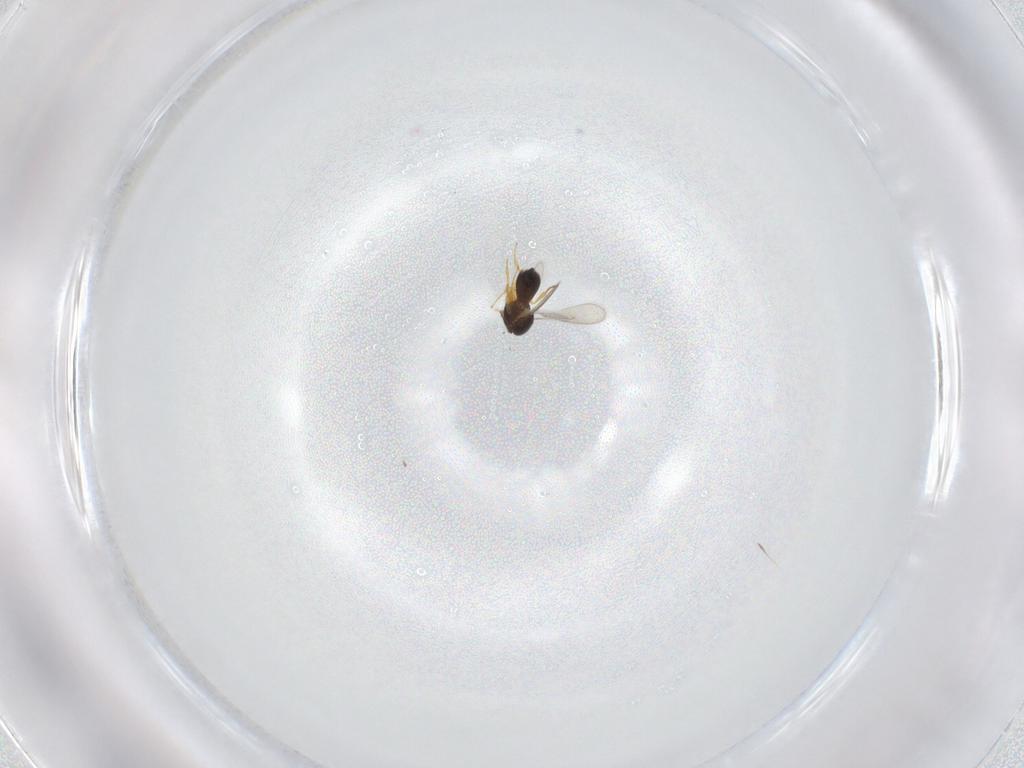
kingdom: Animalia
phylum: Arthropoda
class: Insecta
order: Hymenoptera
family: Scelionidae
